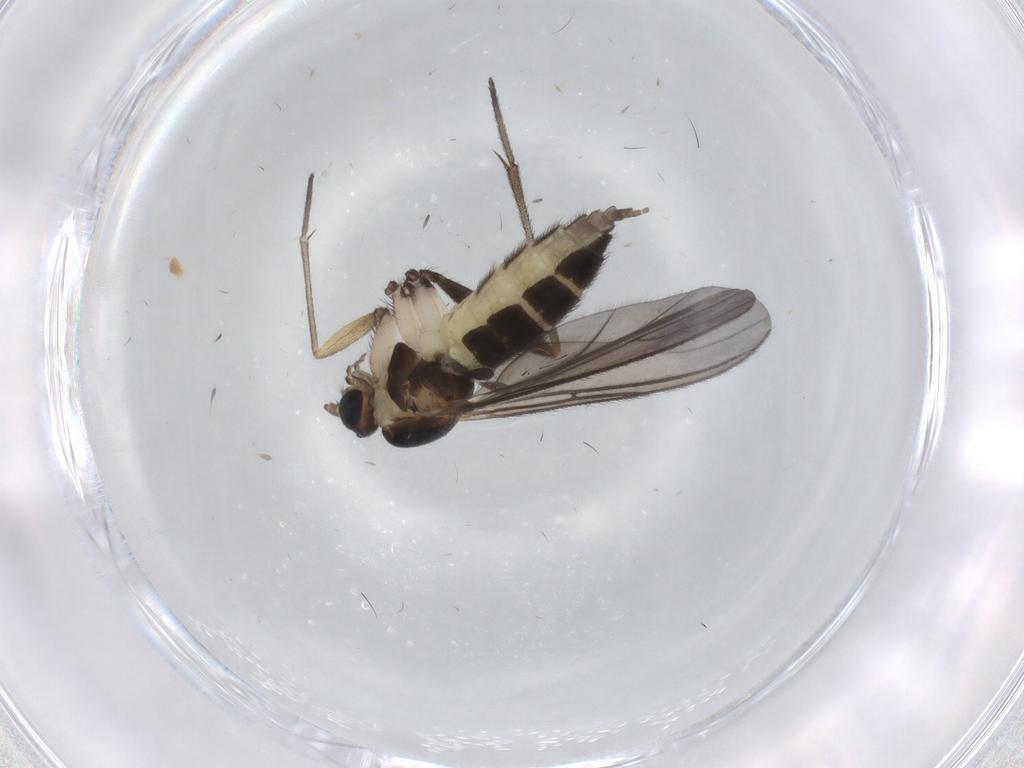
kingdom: Animalia
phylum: Arthropoda
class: Insecta
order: Diptera
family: Sciaridae
